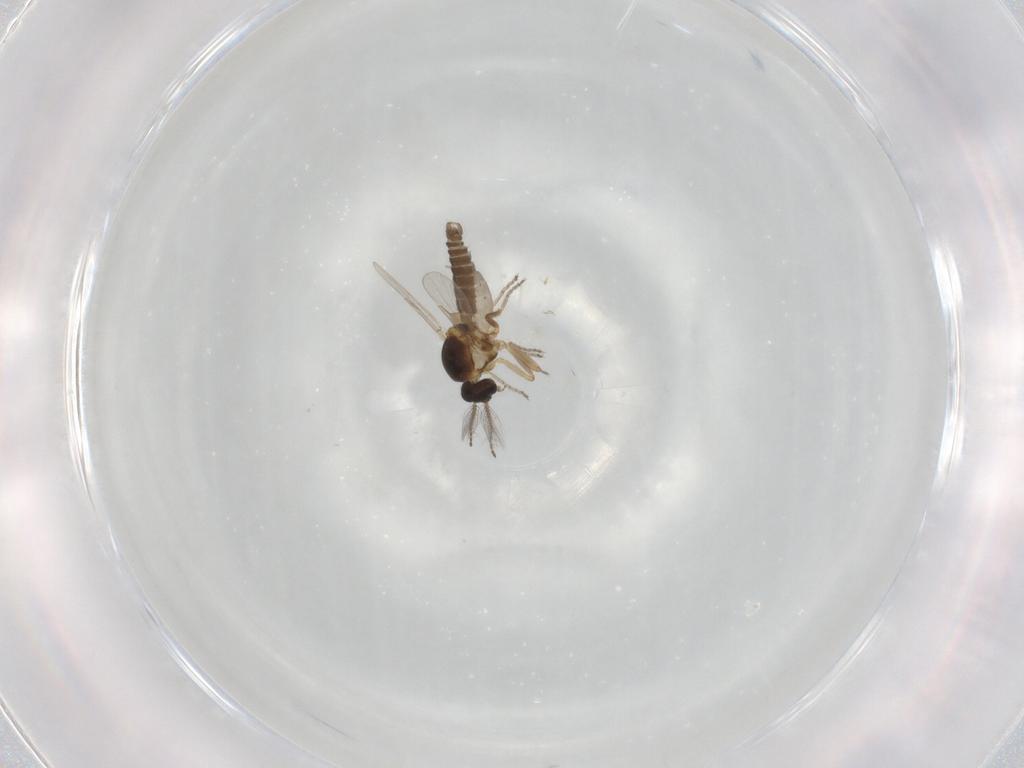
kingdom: Animalia
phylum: Arthropoda
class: Insecta
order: Diptera
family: Ceratopogonidae
